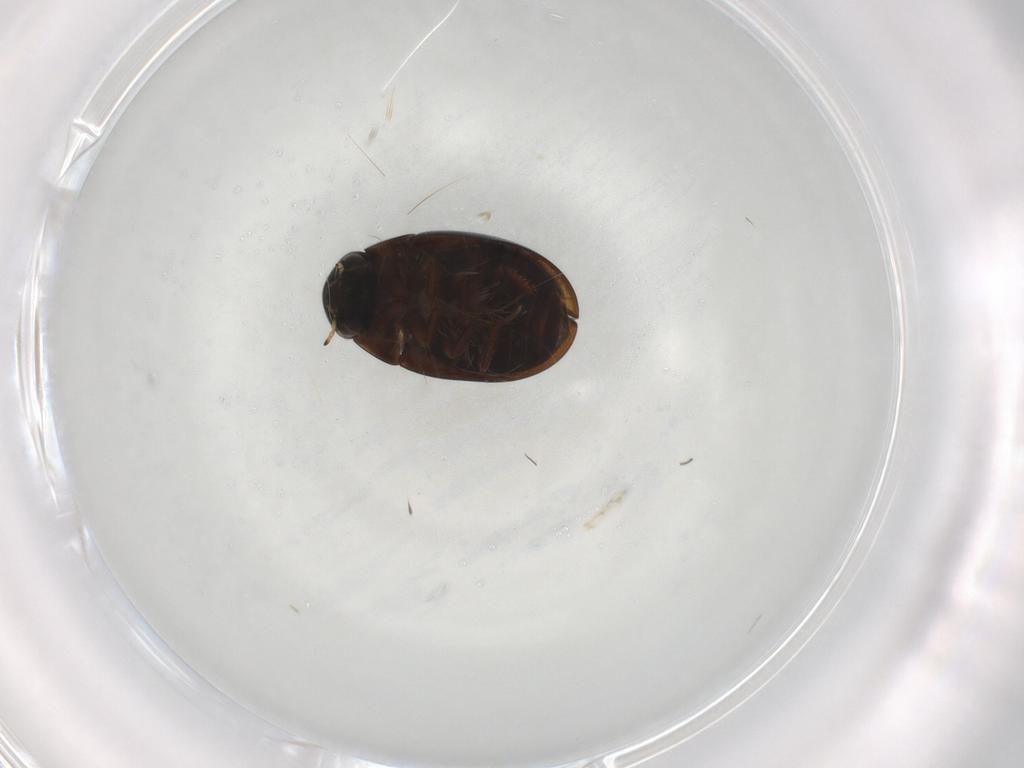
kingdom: Animalia
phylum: Arthropoda
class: Insecta
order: Coleoptera
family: Hydrophilidae
